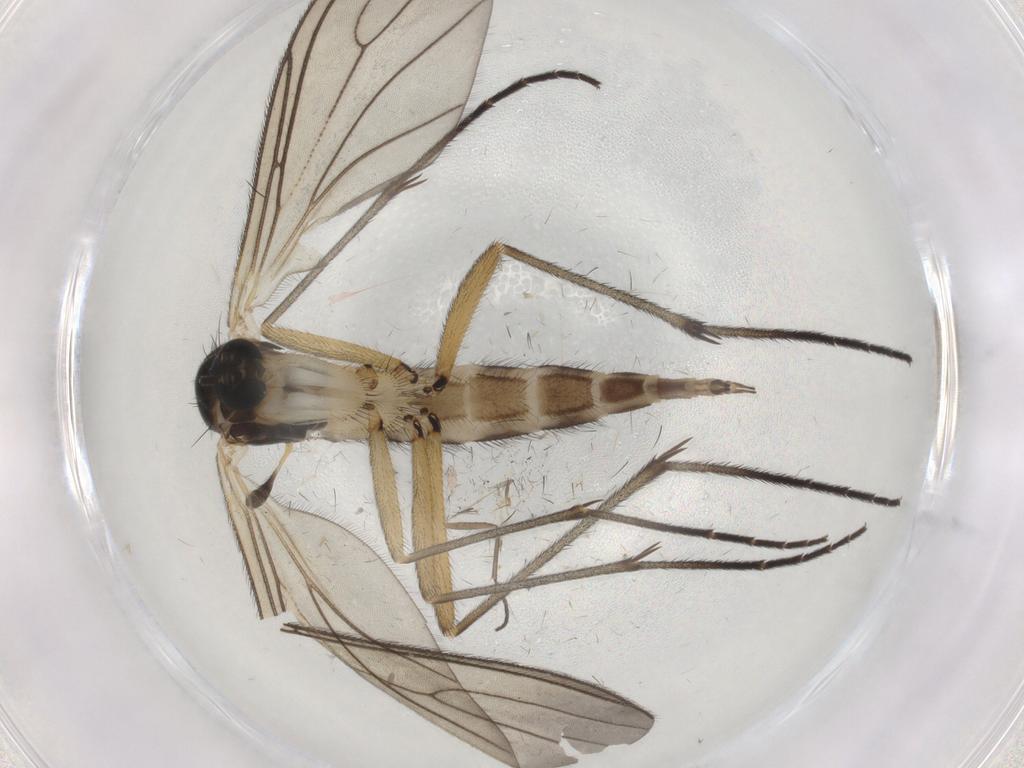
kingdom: Animalia
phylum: Arthropoda
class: Insecta
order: Diptera
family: Sciaridae
